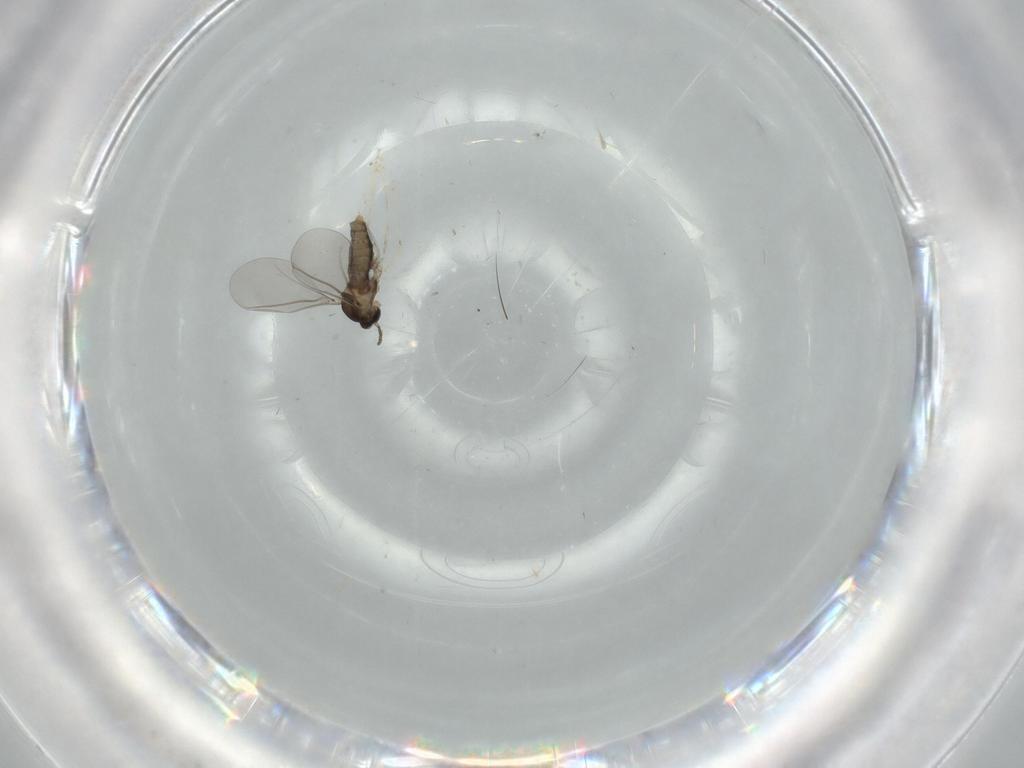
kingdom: Animalia
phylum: Arthropoda
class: Insecta
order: Diptera
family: Cecidomyiidae
